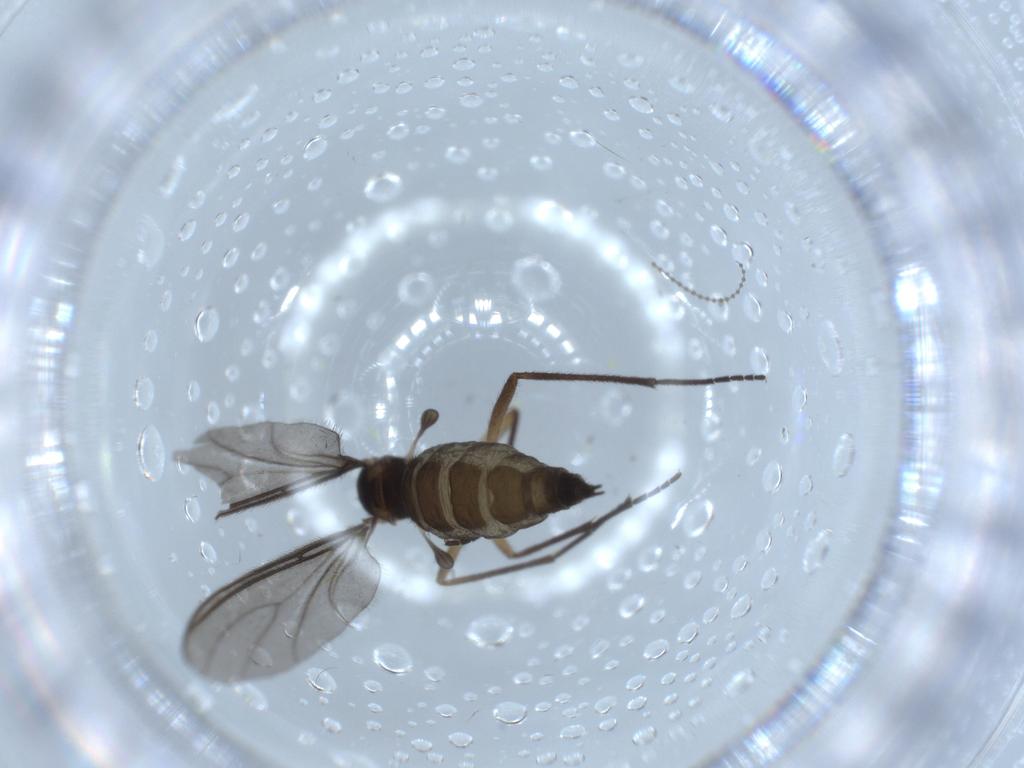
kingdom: Animalia
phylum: Arthropoda
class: Insecta
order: Diptera
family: Sciaridae
